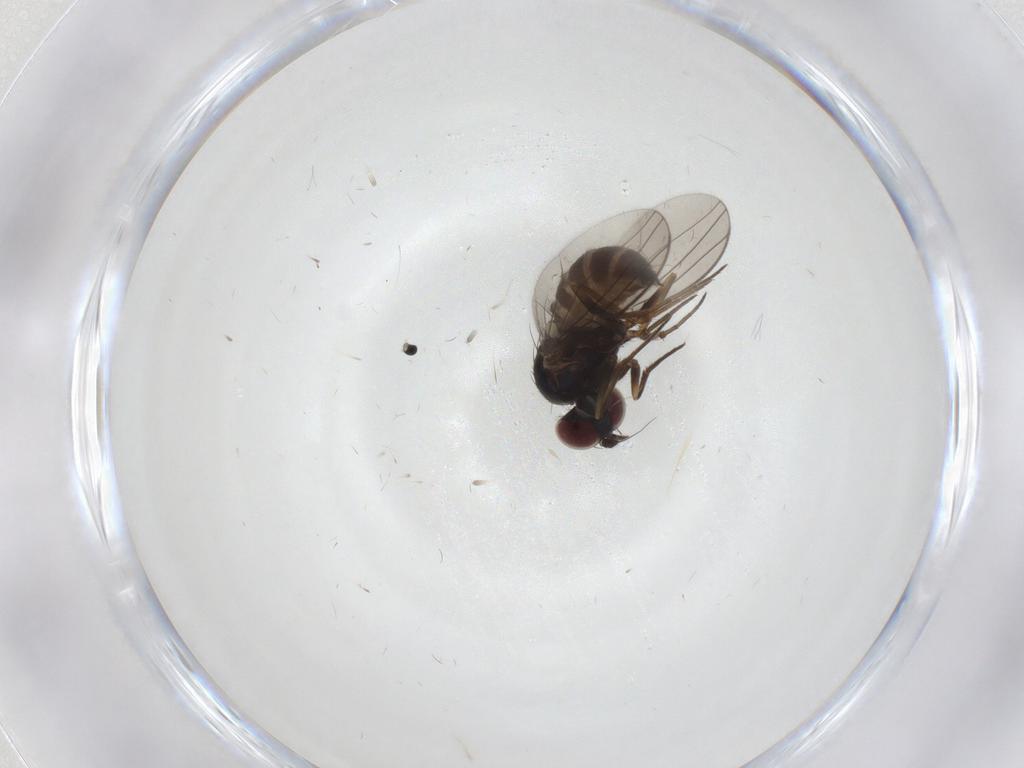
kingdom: Animalia
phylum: Arthropoda
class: Insecta
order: Diptera
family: Dolichopodidae
